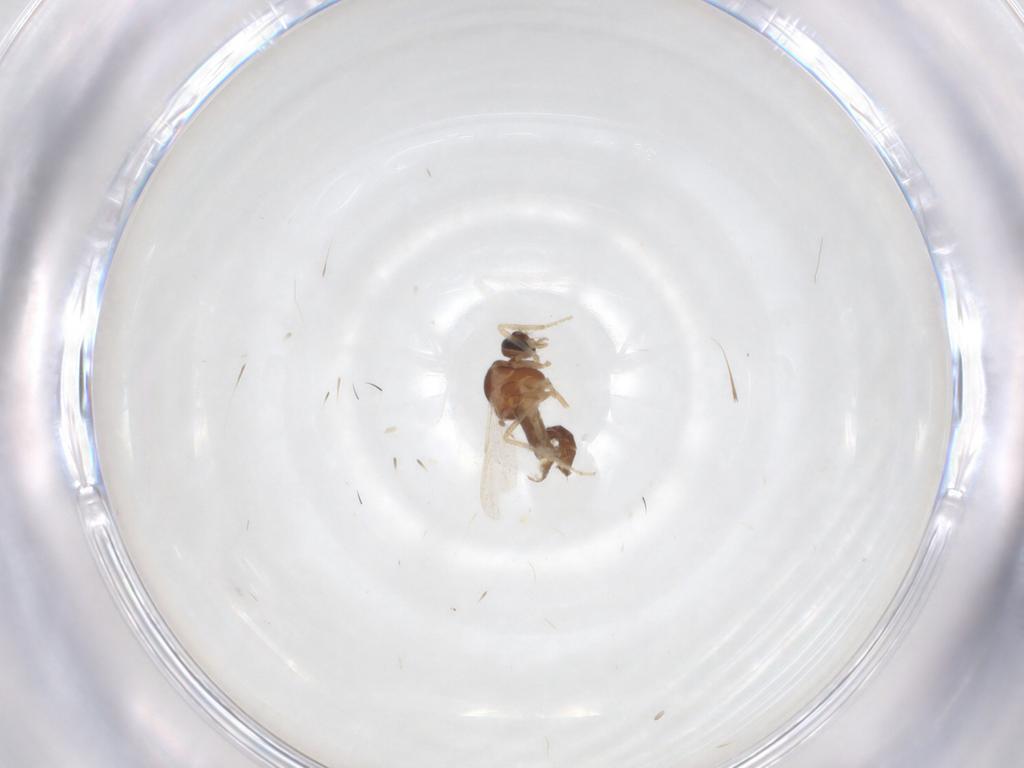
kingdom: Animalia
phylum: Arthropoda
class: Insecta
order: Diptera
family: Ceratopogonidae
